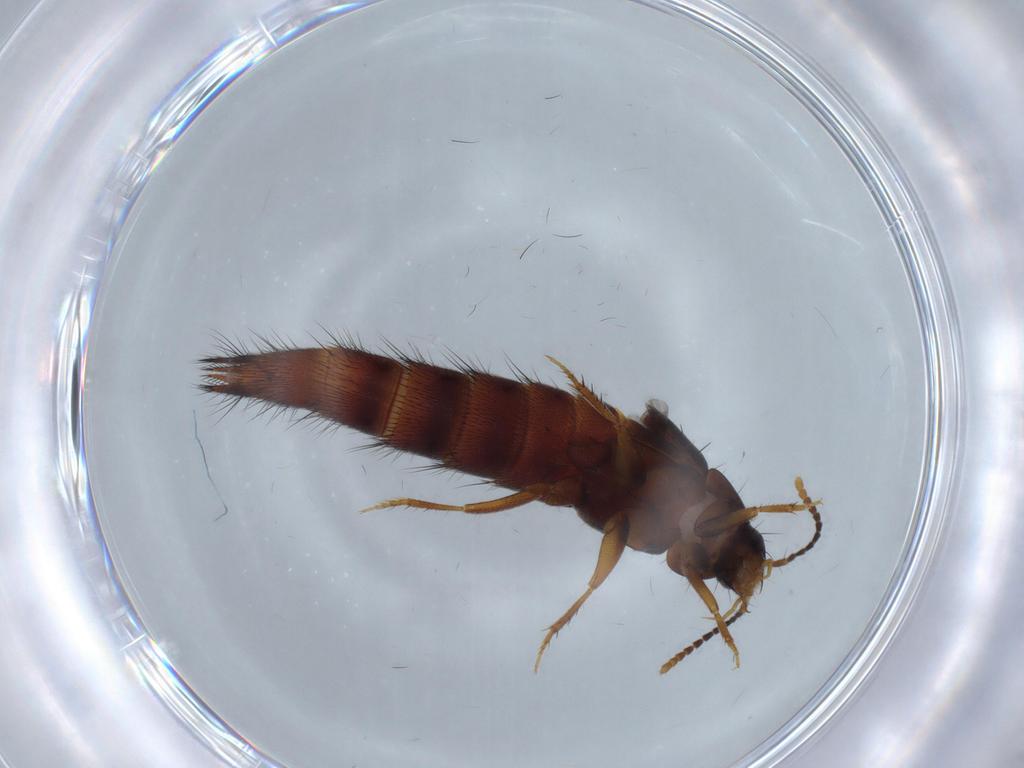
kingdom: Animalia
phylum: Arthropoda
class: Insecta
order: Coleoptera
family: Staphylinidae
